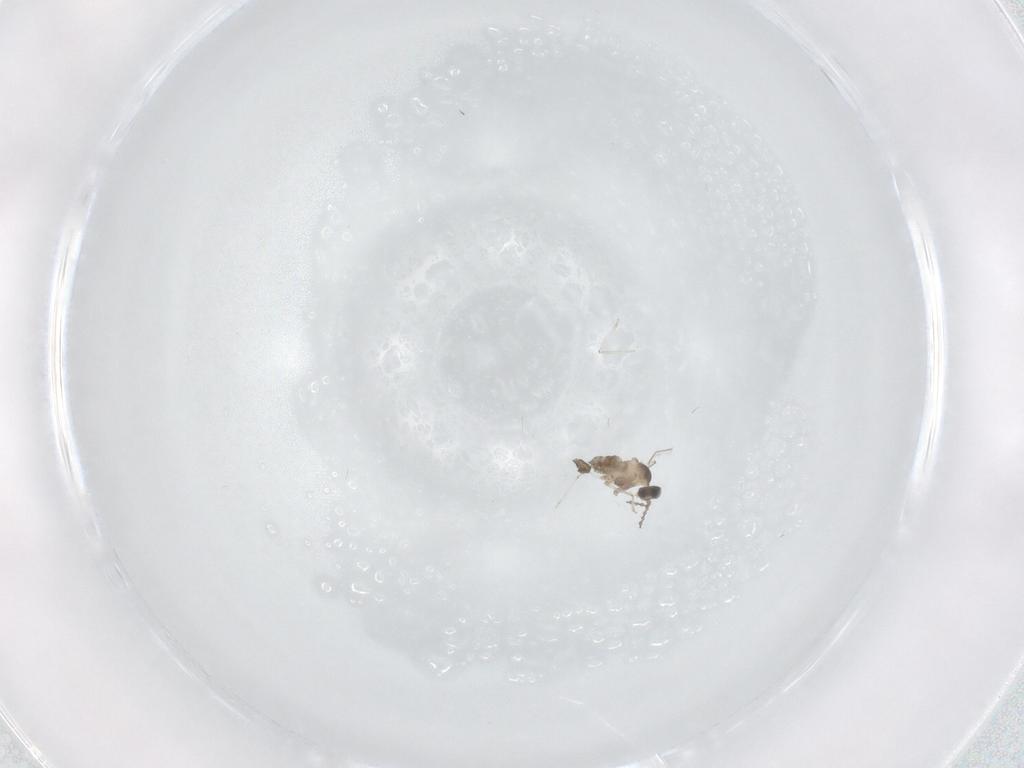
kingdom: Animalia
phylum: Arthropoda
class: Insecta
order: Diptera
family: Cecidomyiidae
